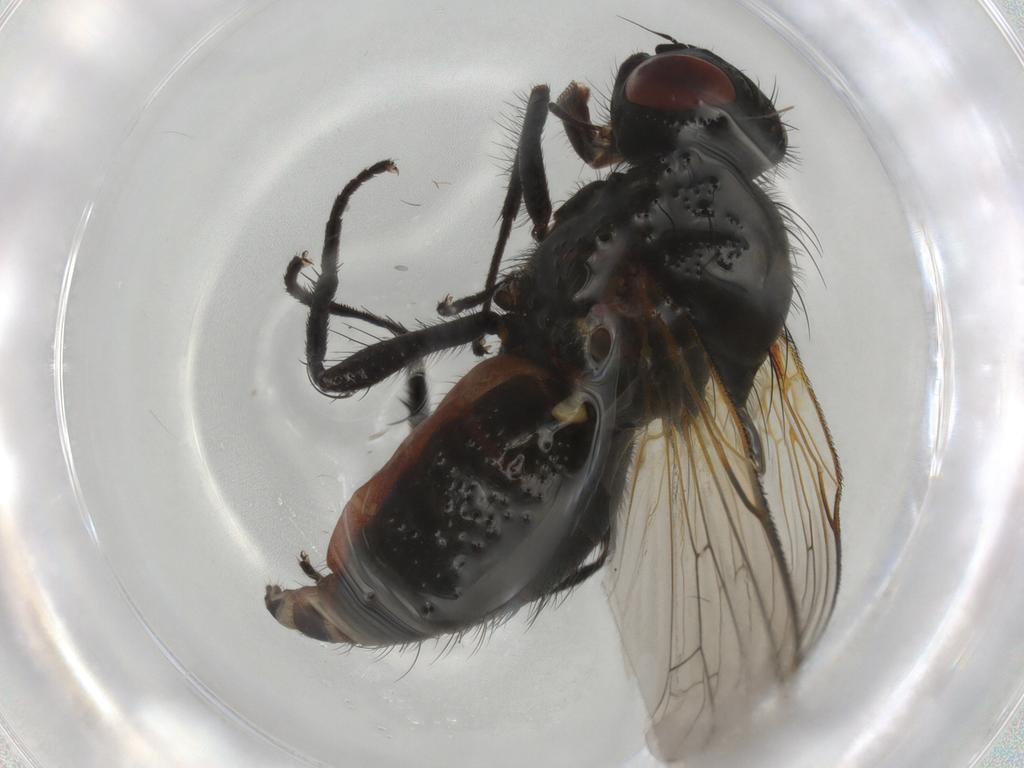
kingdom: Animalia
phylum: Arthropoda
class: Insecta
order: Diptera
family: Anthomyiidae
